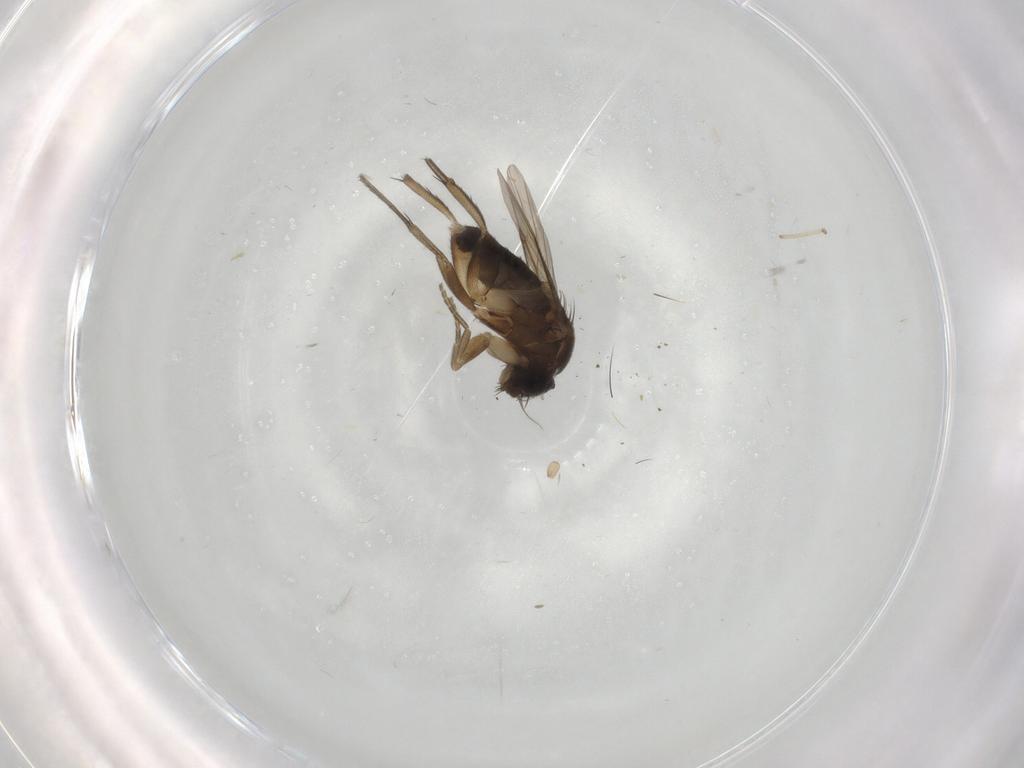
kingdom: Animalia
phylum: Arthropoda
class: Insecta
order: Diptera
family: Phoridae
